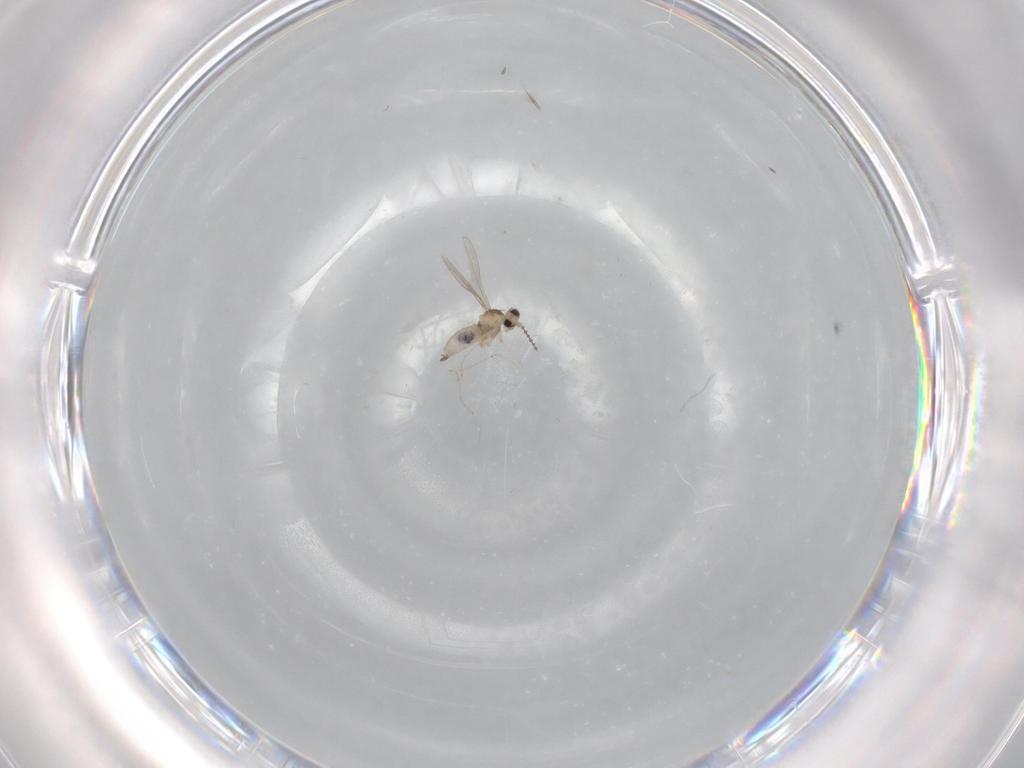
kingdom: Animalia
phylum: Arthropoda
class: Insecta
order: Diptera
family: Cecidomyiidae
